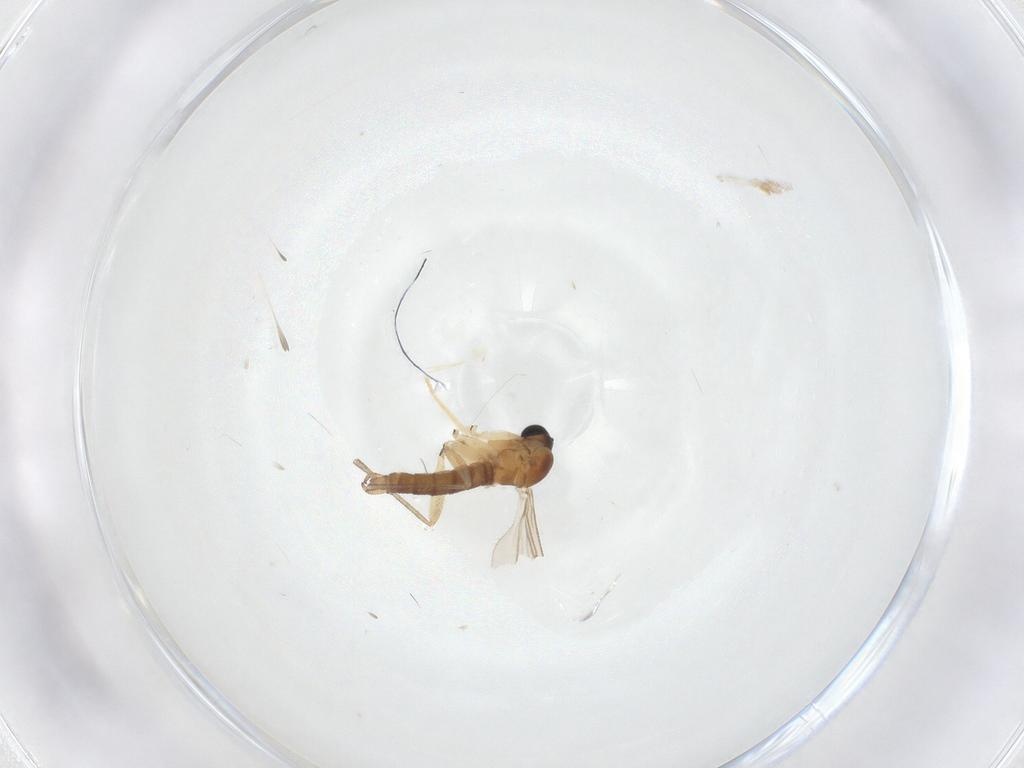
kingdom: Animalia
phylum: Arthropoda
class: Insecta
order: Diptera
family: Sciaridae
